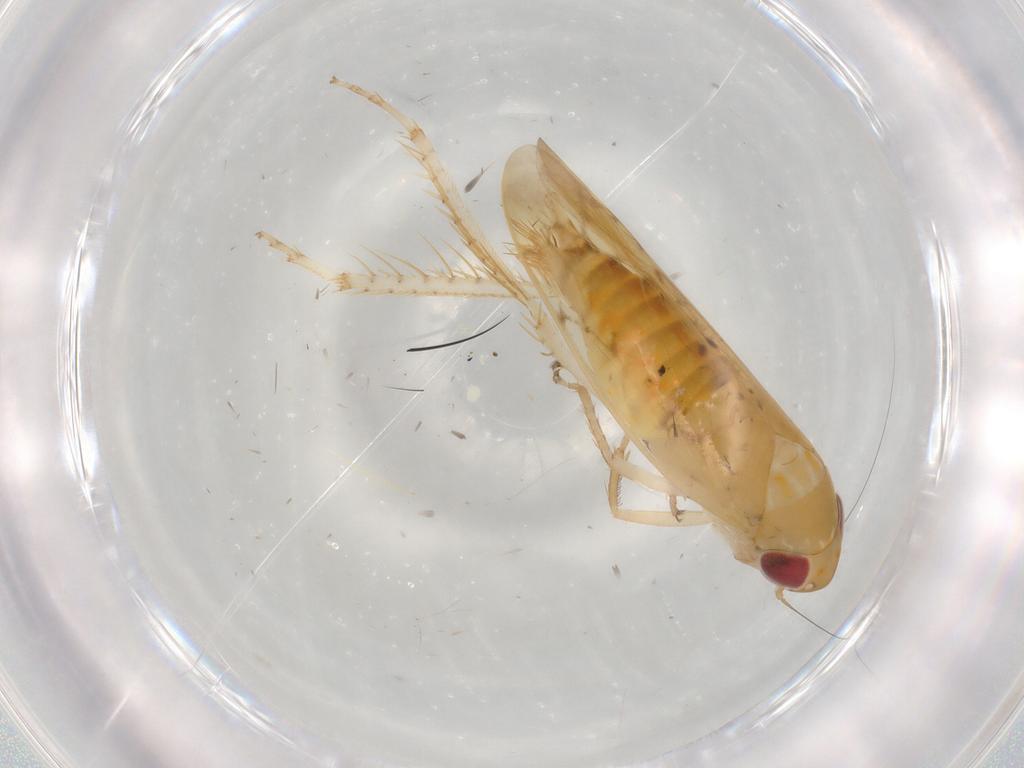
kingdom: Animalia
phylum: Arthropoda
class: Insecta
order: Hemiptera
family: Cicadellidae
